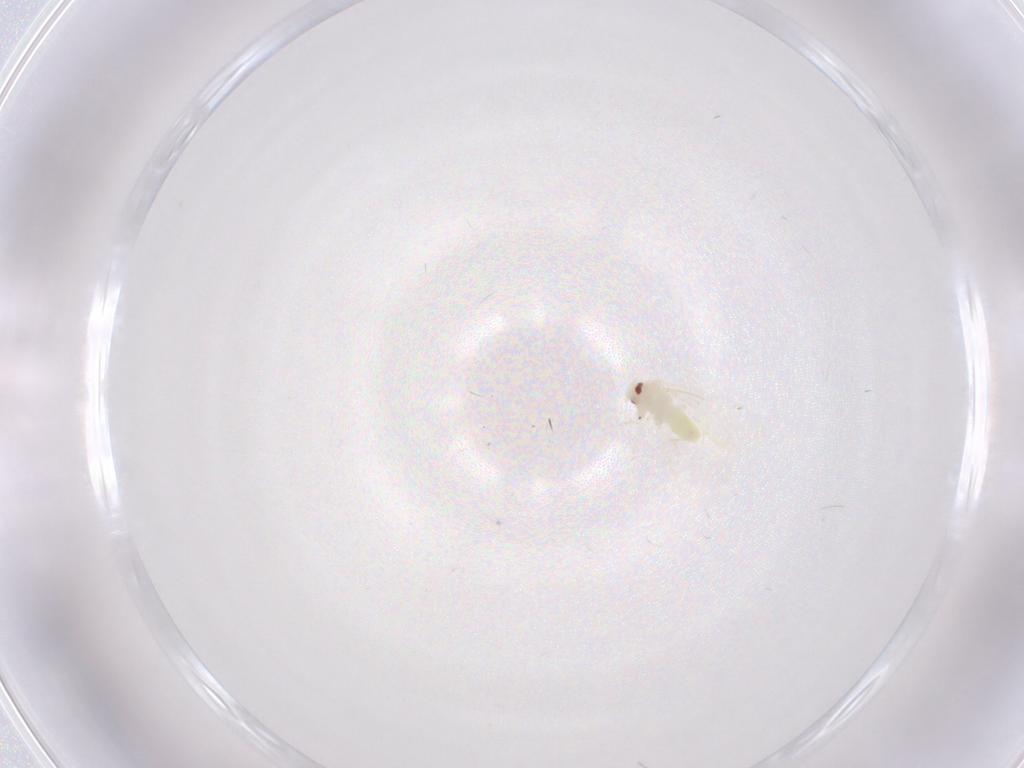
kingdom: Animalia
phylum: Arthropoda
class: Insecta
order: Hemiptera
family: Aleyrodidae
